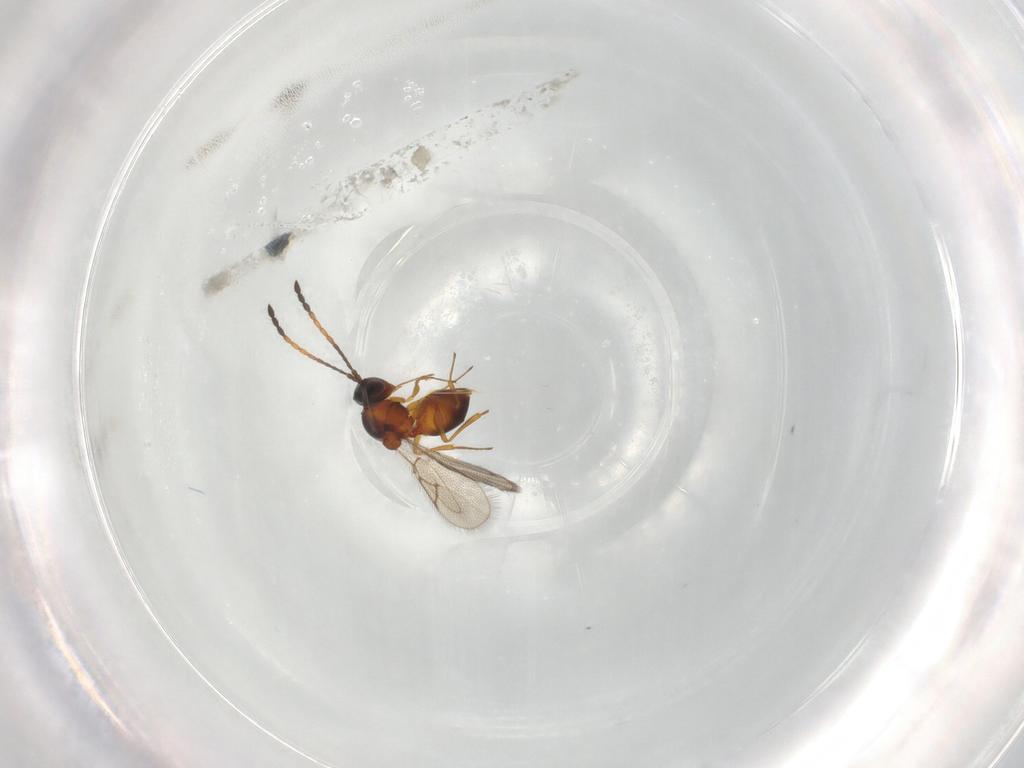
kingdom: Animalia
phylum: Arthropoda
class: Insecta
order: Hymenoptera
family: Figitidae
